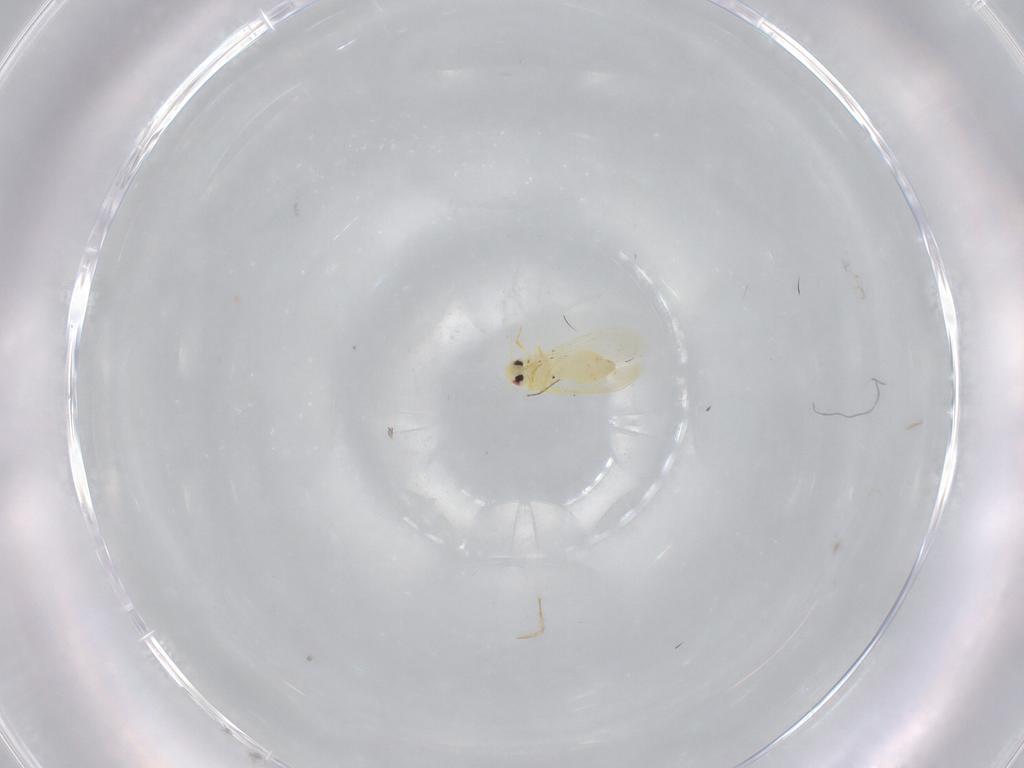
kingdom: Animalia
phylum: Arthropoda
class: Insecta
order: Diptera
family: Limoniidae
